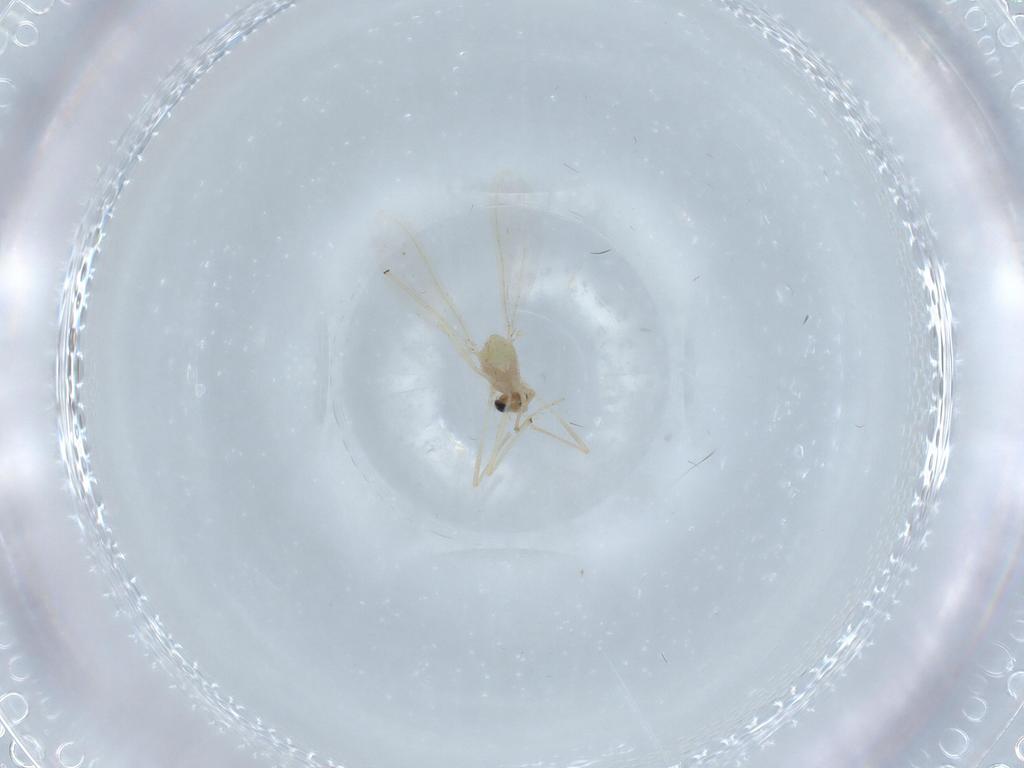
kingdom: Animalia
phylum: Arthropoda
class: Insecta
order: Diptera
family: Chironomidae
